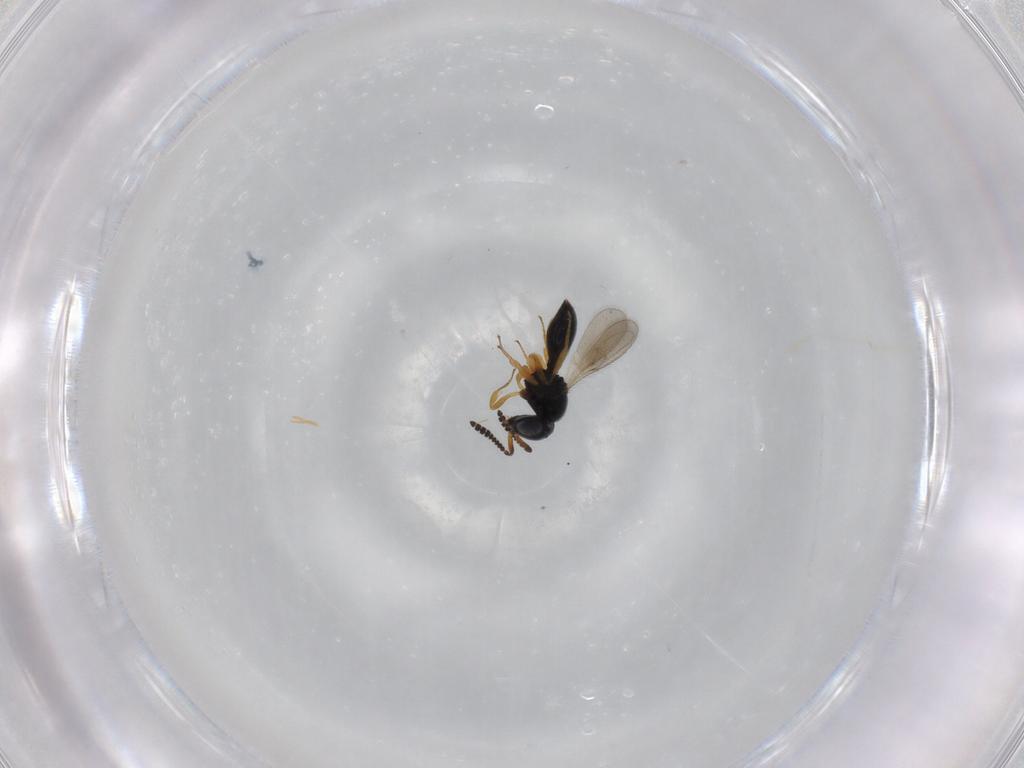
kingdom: Animalia
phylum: Arthropoda
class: Insecta
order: Hymenoptera
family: Scelionidae
